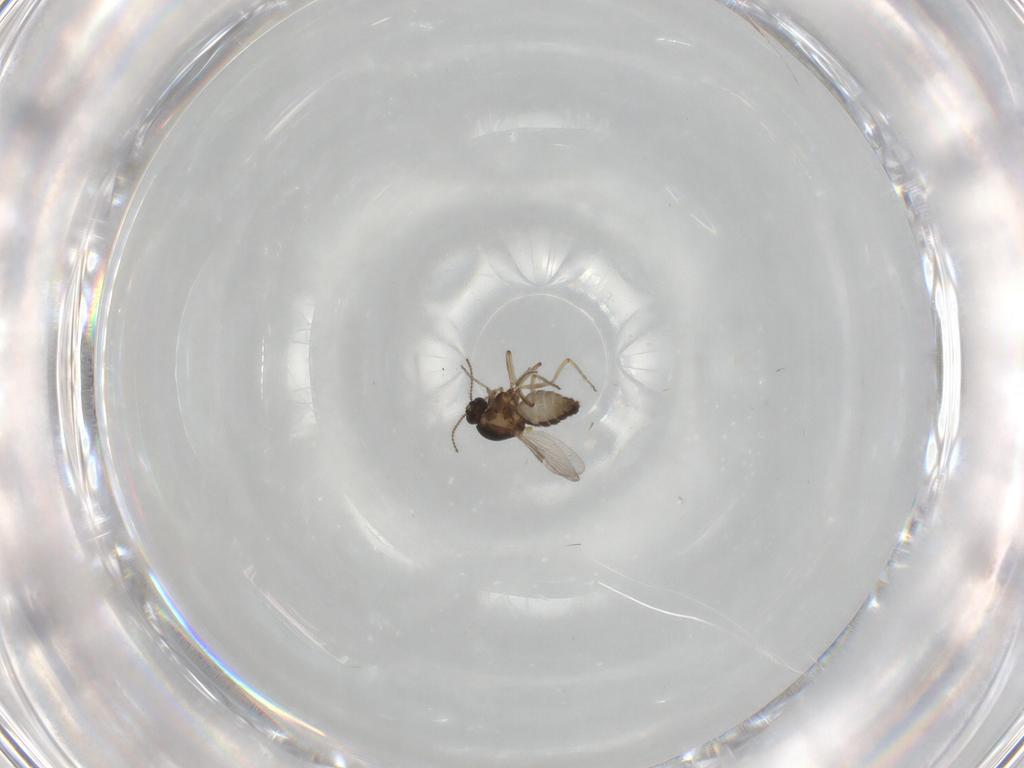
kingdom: Animalia
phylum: Arthropoda
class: Insecta
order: Diptera
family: Ceratopogonidae
